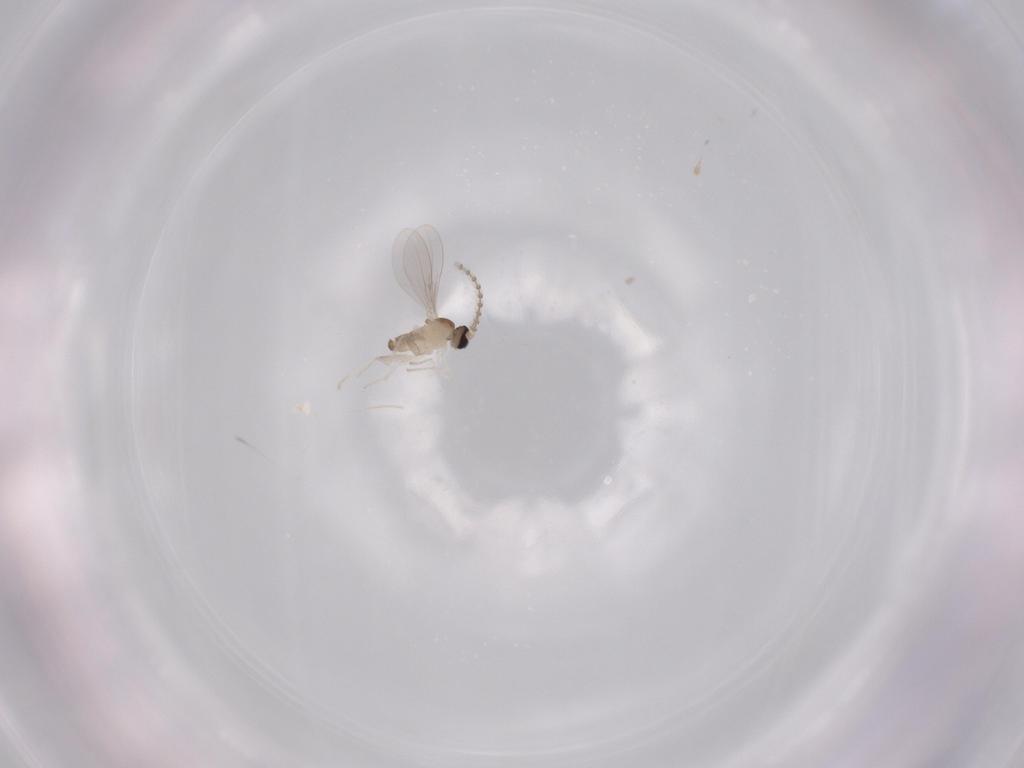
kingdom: Animalia
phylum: Arthropoda
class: Insecta
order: Diptera
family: Cecidomyiidae
